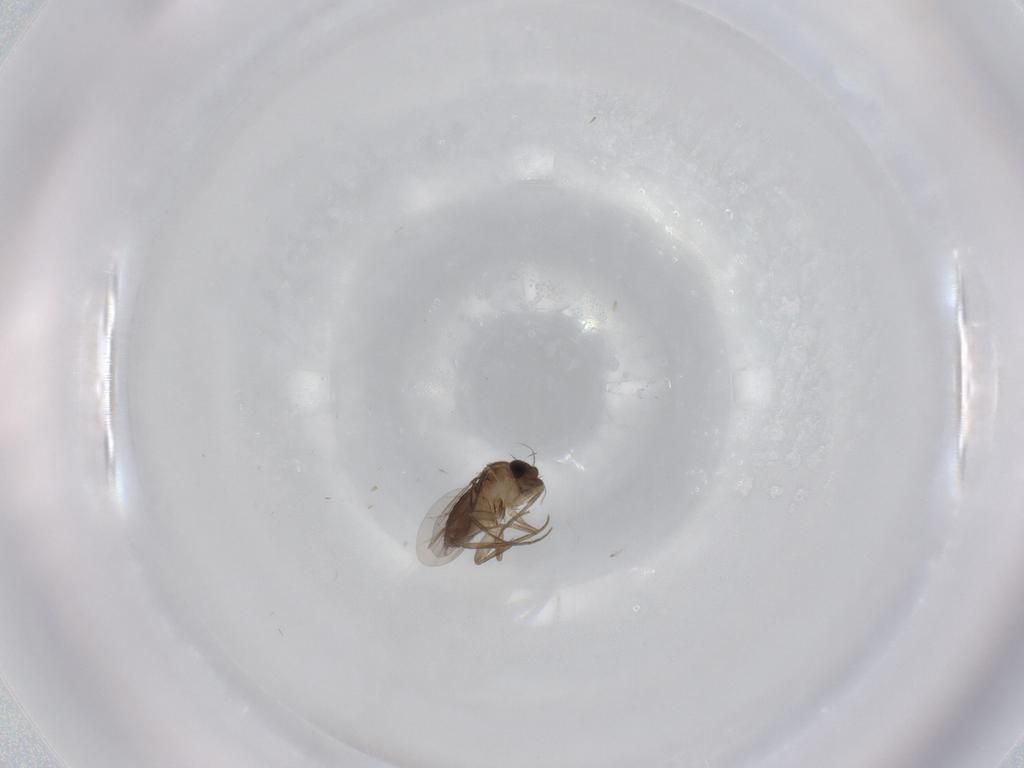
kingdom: Animalia
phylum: Arthropoda
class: Insecta
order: Diptera
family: Phoridae
